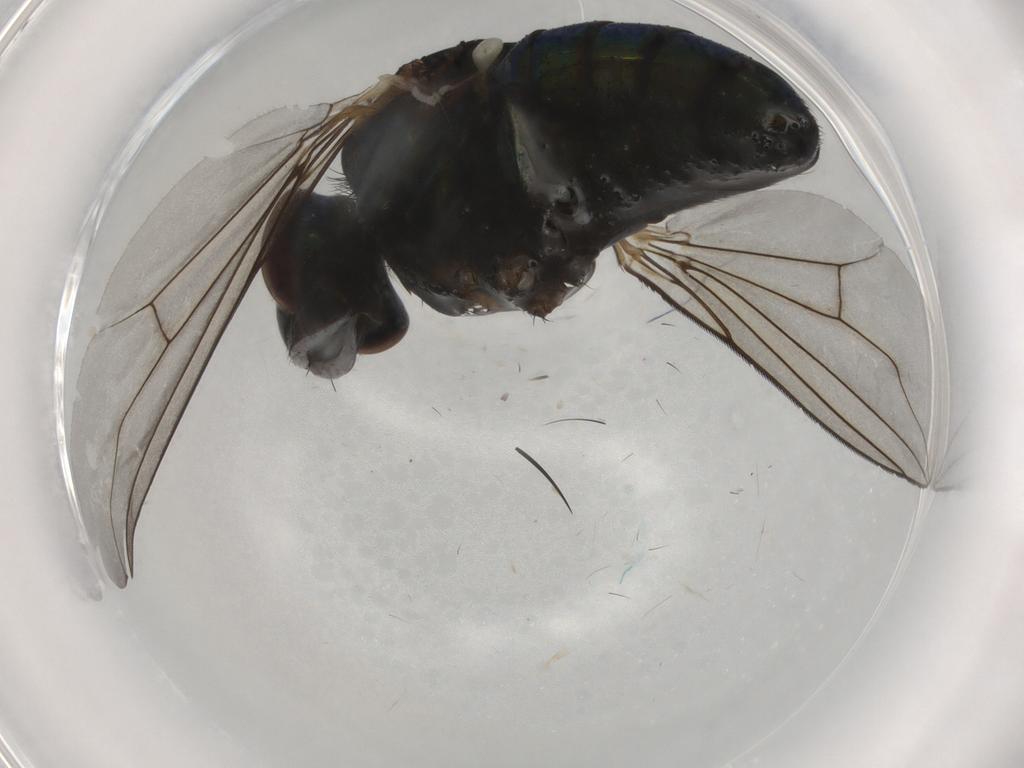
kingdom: Animalia
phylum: Arthropoda
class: Insecta
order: Diptera
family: Dolichopodidae
